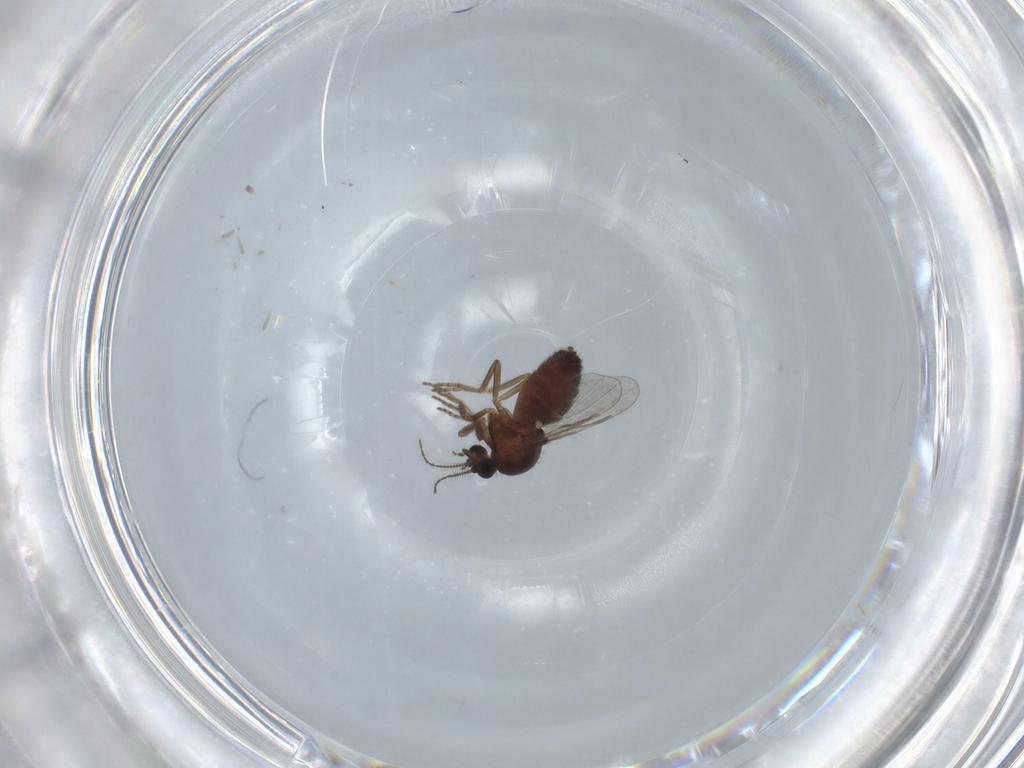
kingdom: Animalia
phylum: Arthropoda
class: Insecta
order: Diptera
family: Ceratopogonidae
